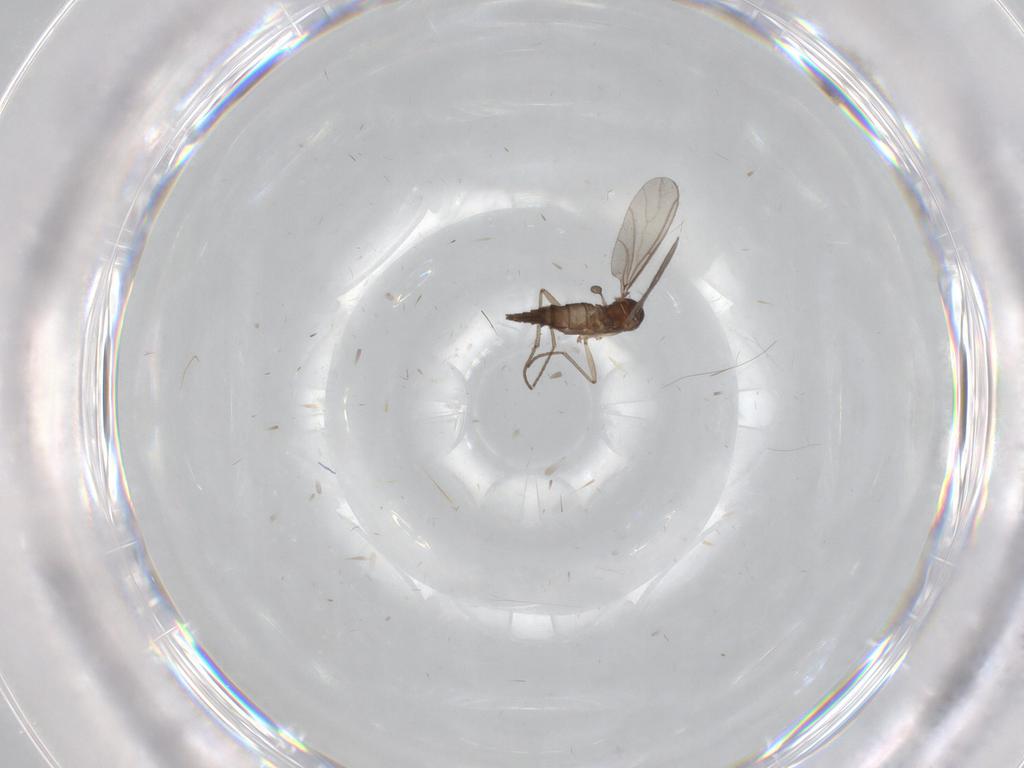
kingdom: Animalia
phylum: Arthropoda
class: Insecta
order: Diptera
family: Sciaridae
